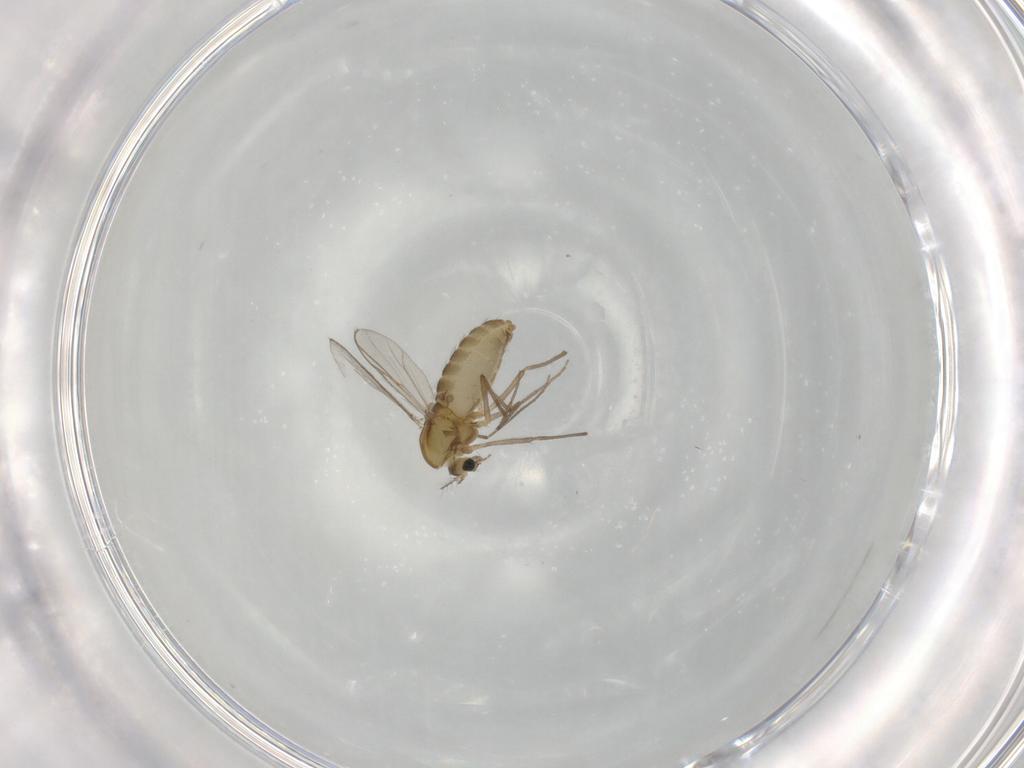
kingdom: Animalia
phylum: Arthropoda
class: Insecta
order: Diptera
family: Chironomidae
